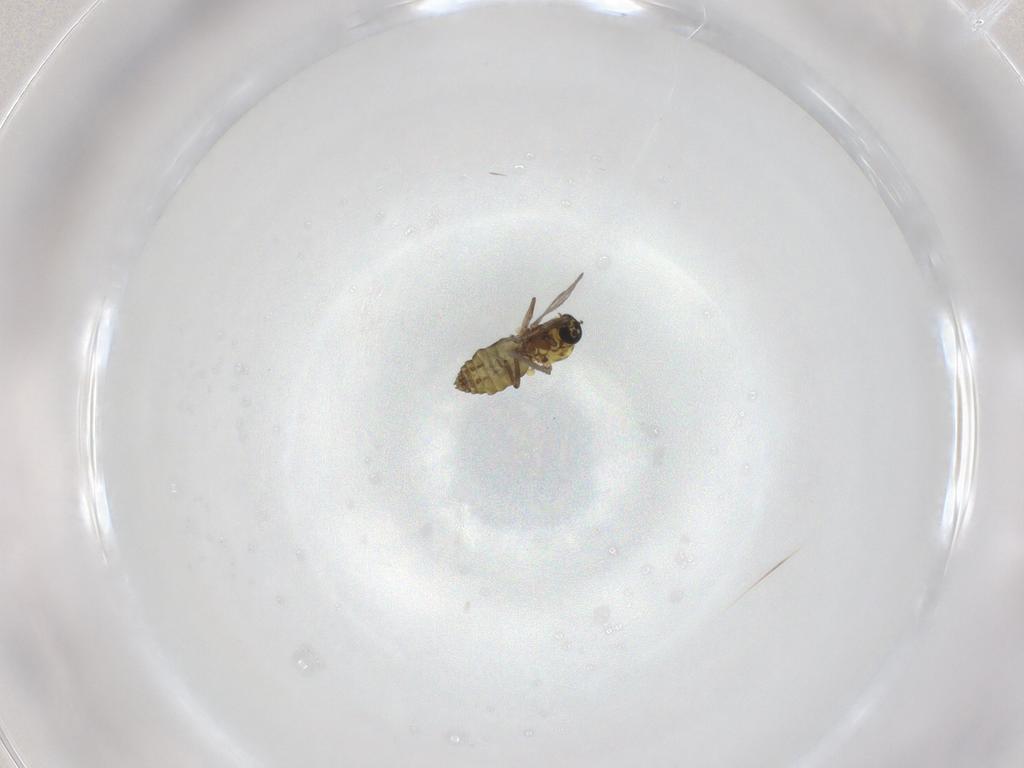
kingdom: Animalia
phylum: Arthropoda
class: Insecta
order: Diptera
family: Ceratopogonidae
